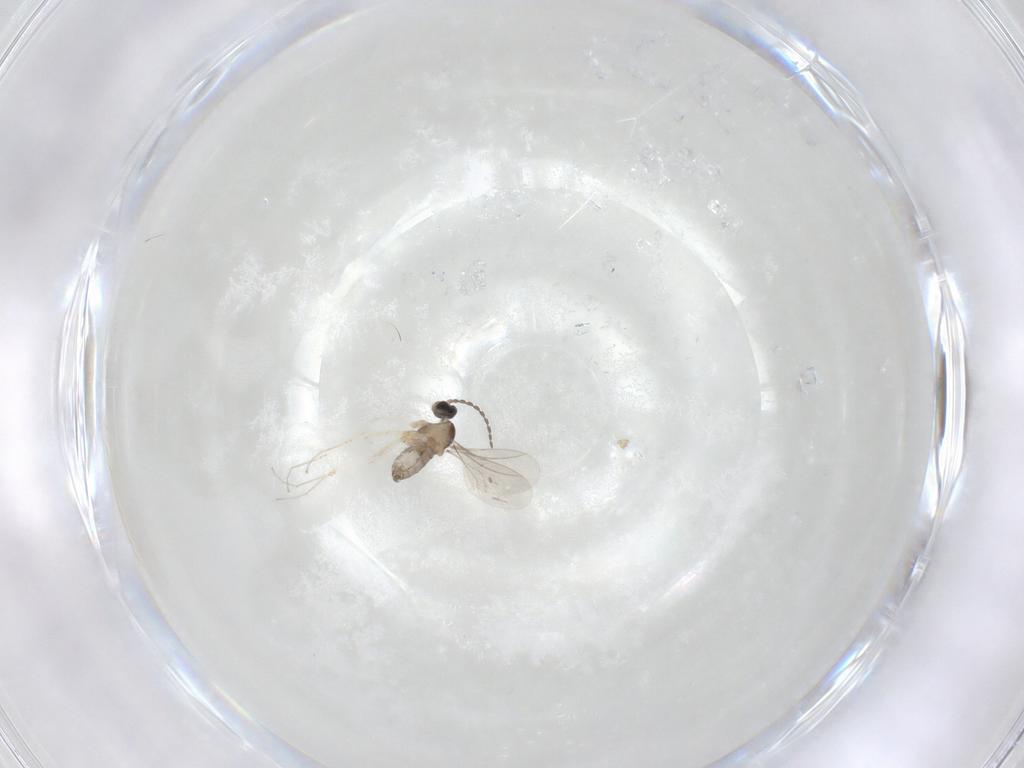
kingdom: Animalia
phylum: Arthropoda
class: Insecta
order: Diptera
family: Cecidomyiidae
